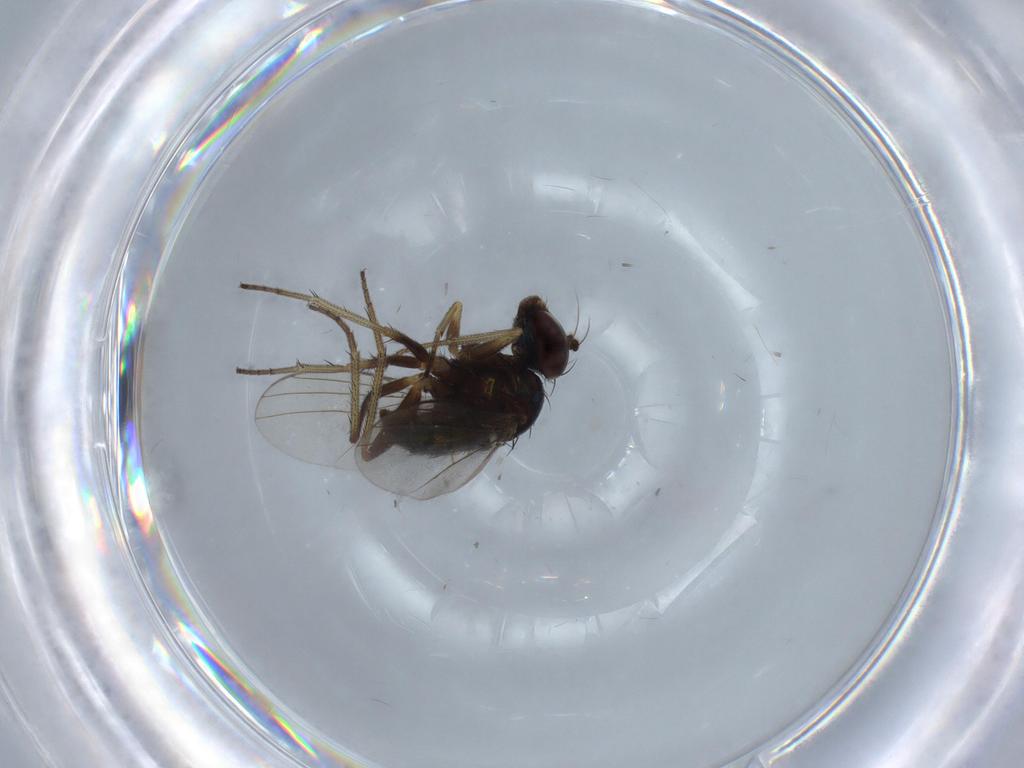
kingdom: Animalia
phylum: Arthropoda
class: Insecta
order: Diptera
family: Dolichopodidae
